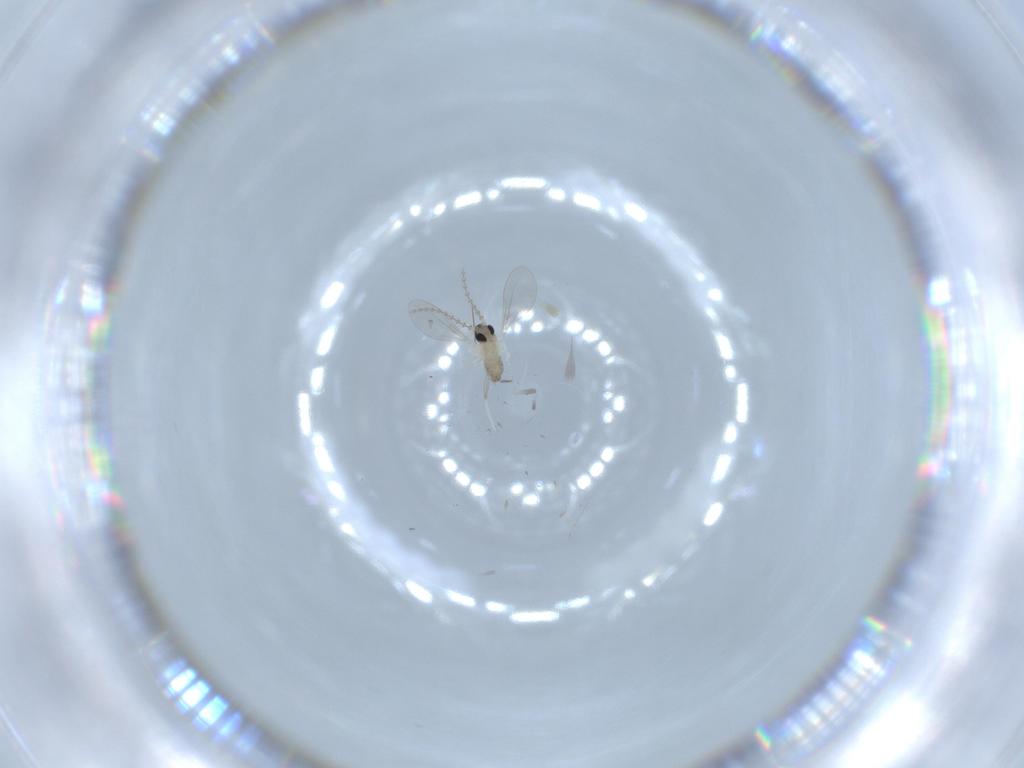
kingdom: Animalia
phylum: Arthropoda
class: Insecta
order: Diptera
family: Cecidomyiidae
